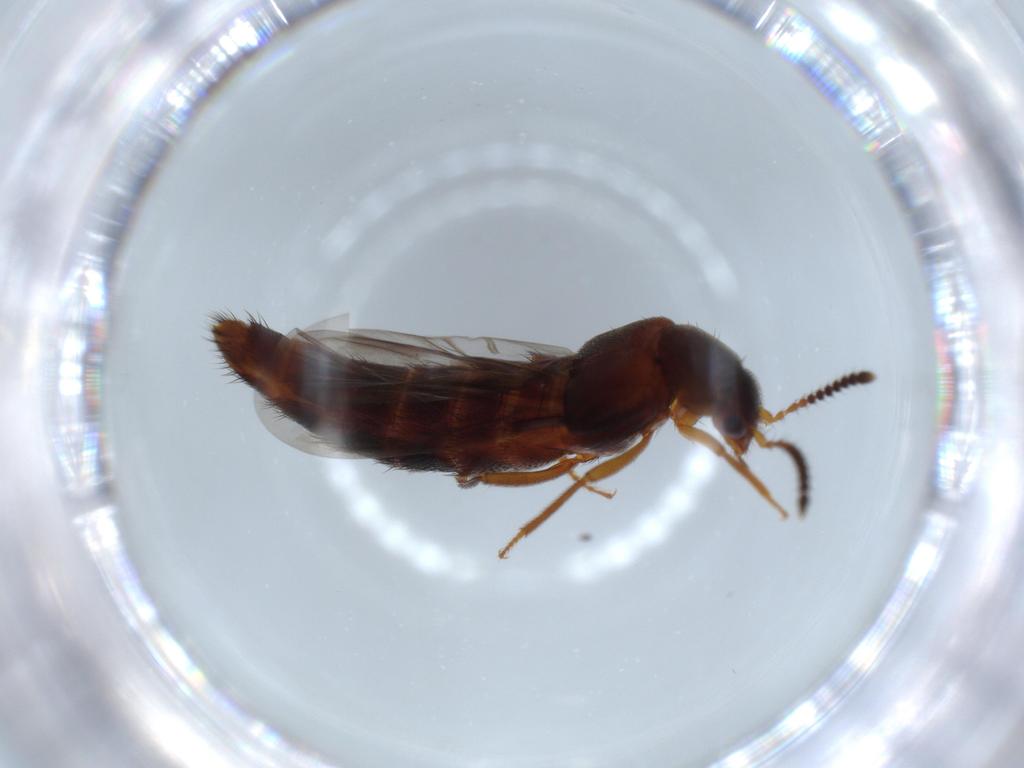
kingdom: Animalia
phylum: Arthropoda
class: Insecta
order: Coleoptera
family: Staphylinidae
